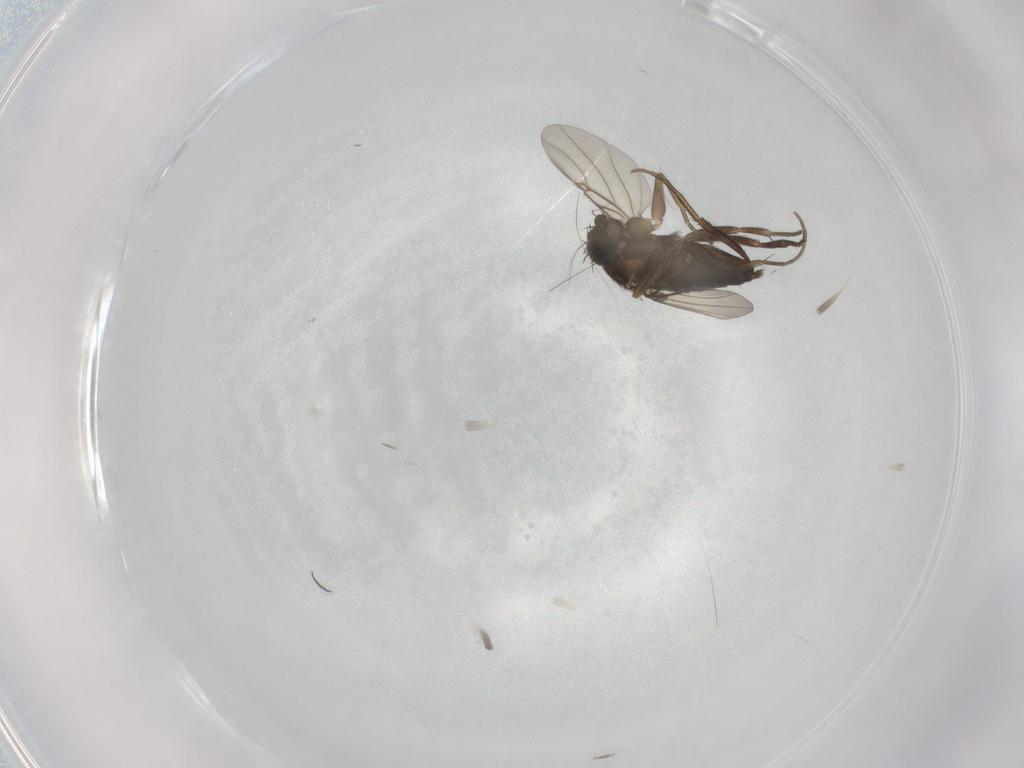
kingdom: Animalia
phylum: Arthropoda
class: Insecta
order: Diptera
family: Phoridae
